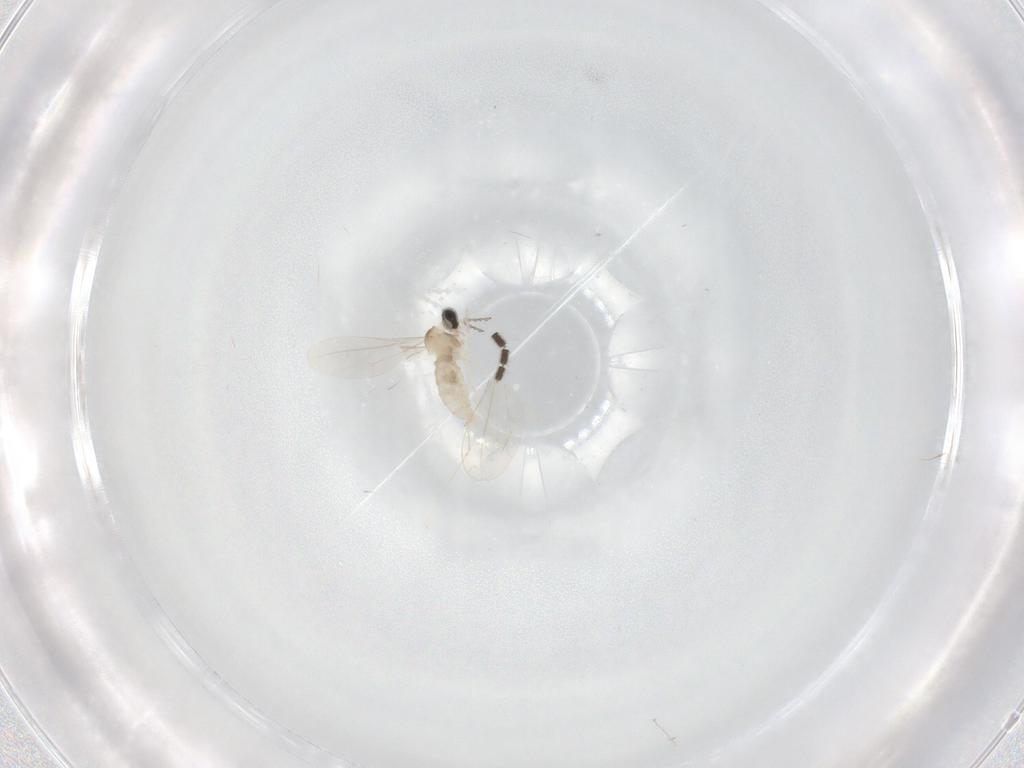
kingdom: Animalia
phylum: Arthropoda
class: Insecta
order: Diptera
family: Sciaridae
